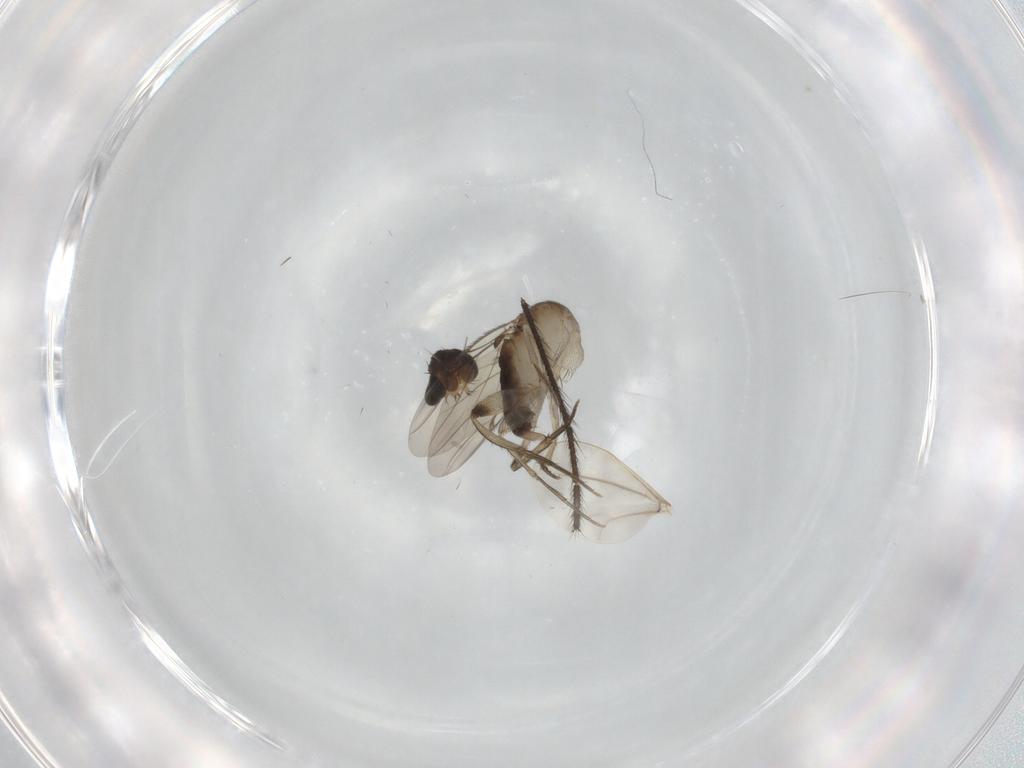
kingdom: Animalia
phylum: Arthropoda
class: Insecta
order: Diptera
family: Phoridae
